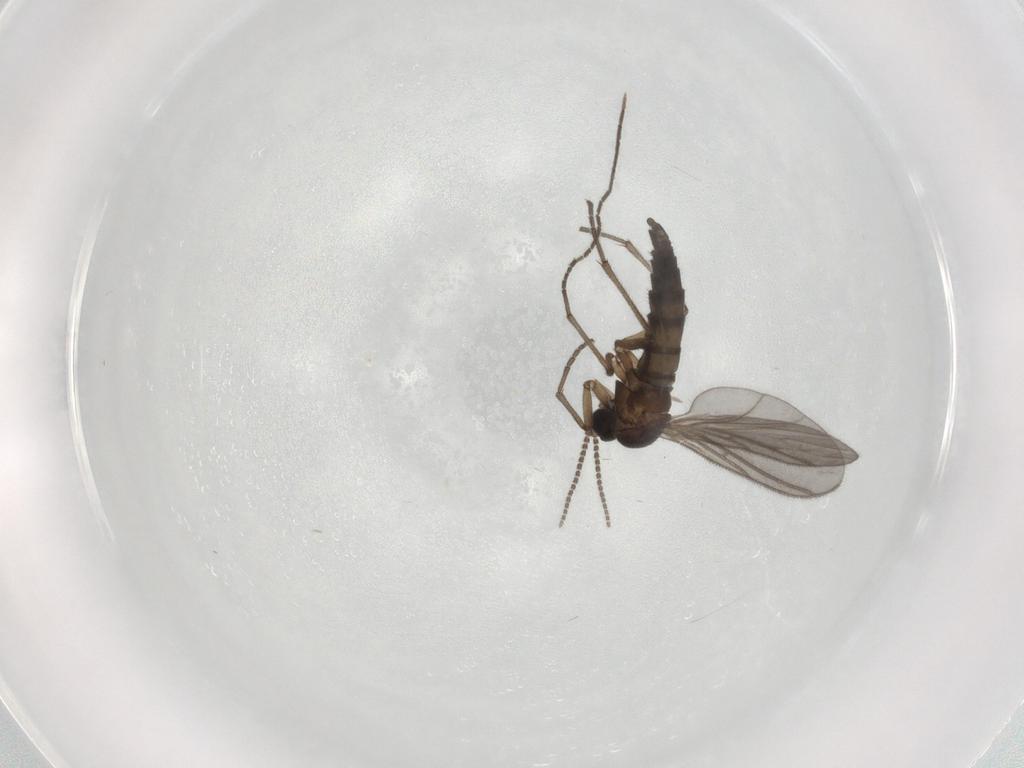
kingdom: Animalia
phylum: Arthropoda
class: Insecta
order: Diptera
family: Sciaridae
